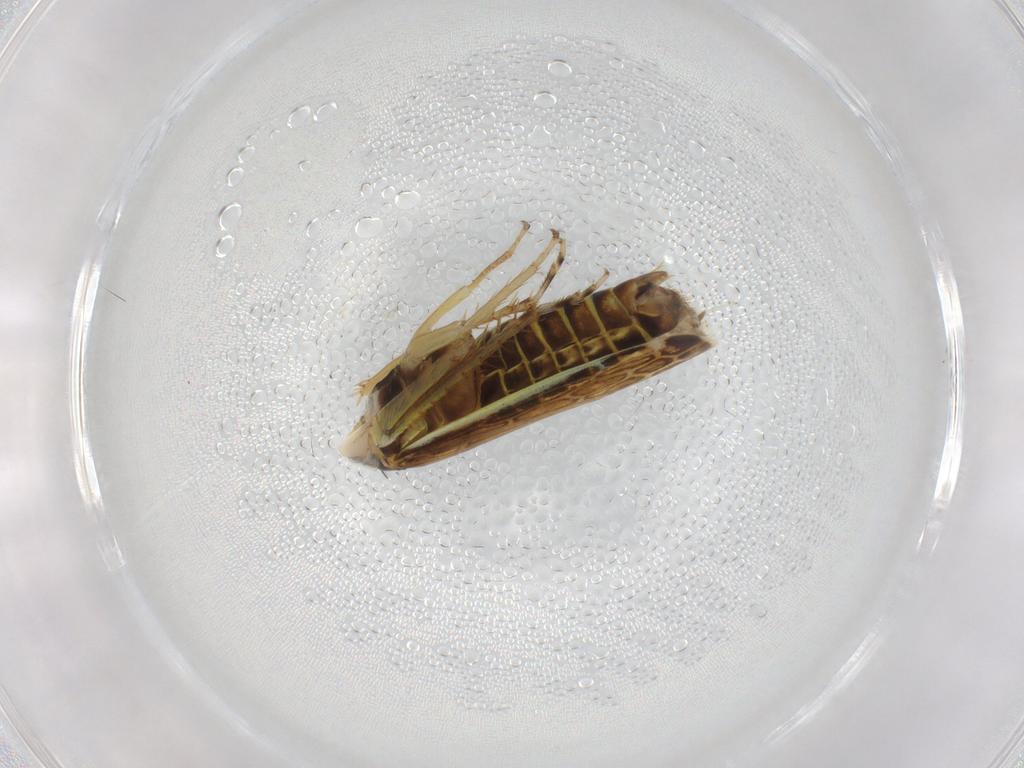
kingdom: Animalia
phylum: Arthropoda
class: Insecta
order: Hemiptera
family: Cicadellidae
